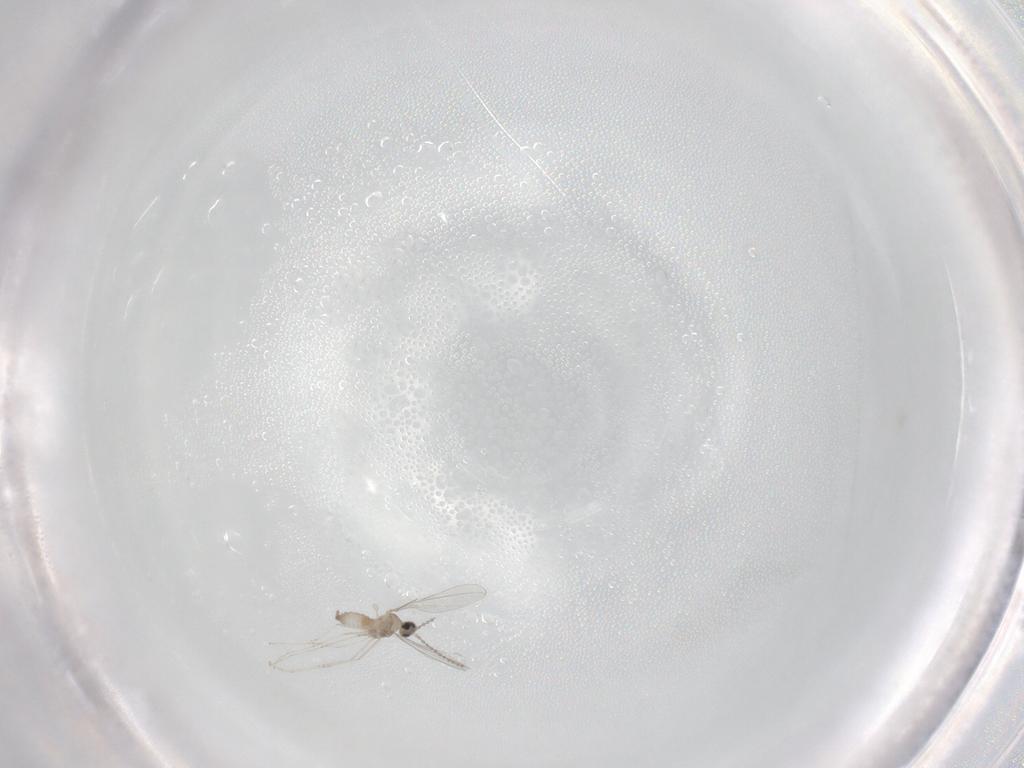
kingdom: Animalia
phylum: Arthropoda
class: Insecta
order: Diptera
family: Cecidomyiidae
